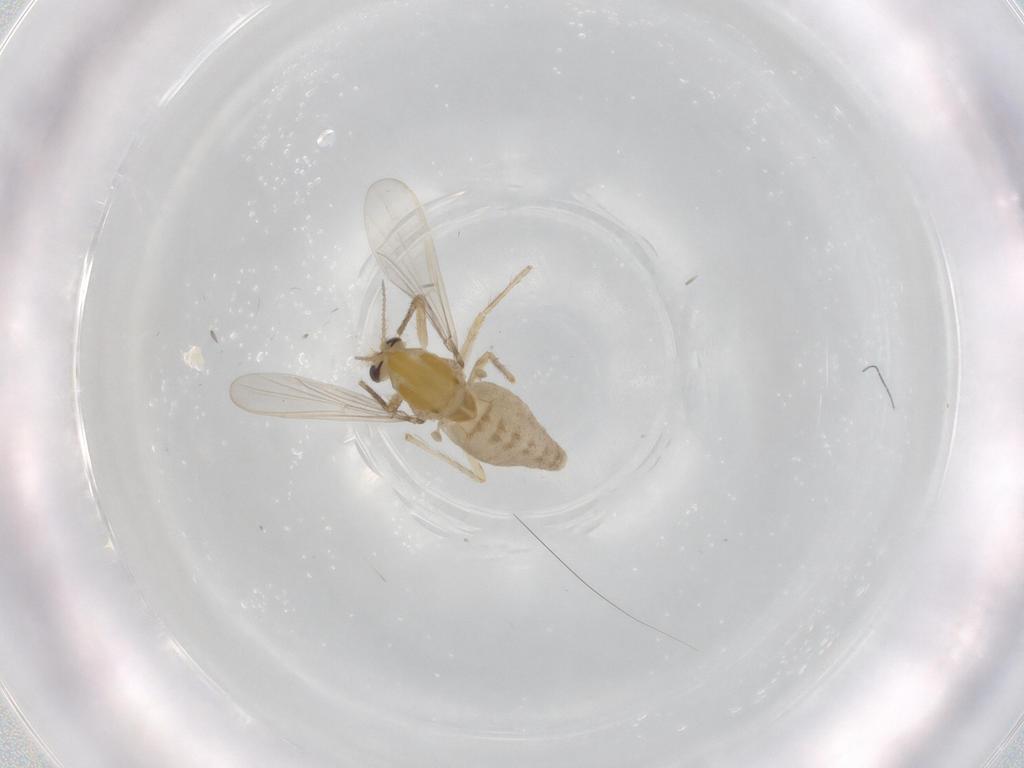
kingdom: Animalia
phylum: Arthropoda
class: Insecta
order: Diptera
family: Chironomidae
